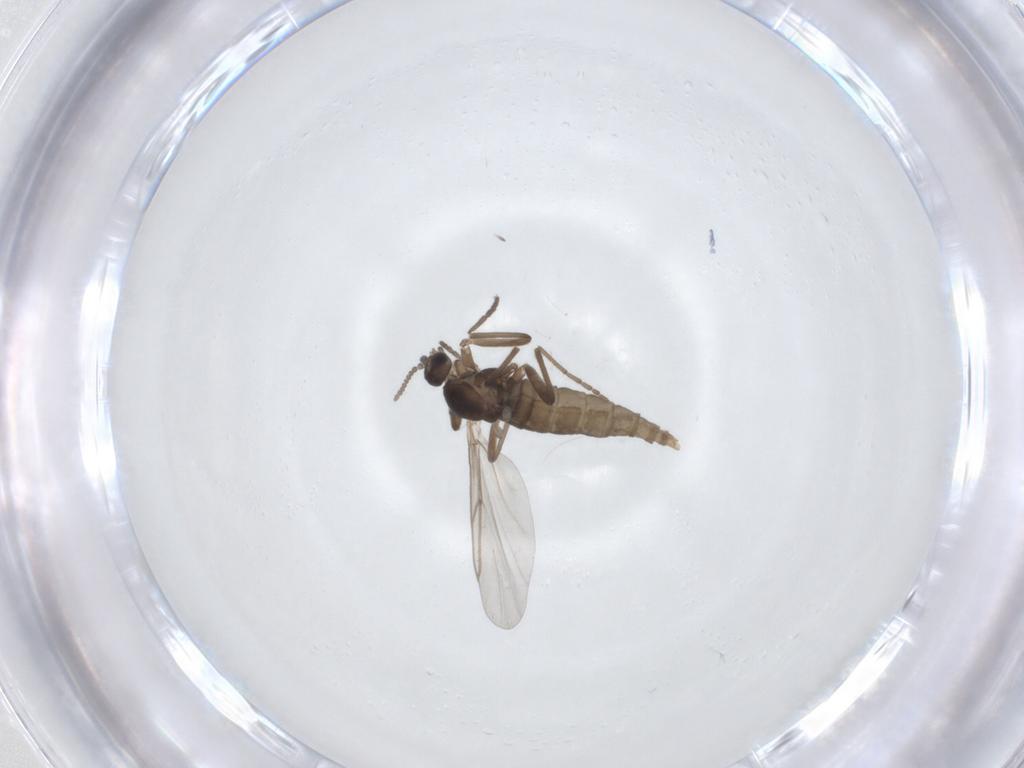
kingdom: Animalia
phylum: Arthropoda
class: Insecta
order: Diptera
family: Cecidomyiidae
